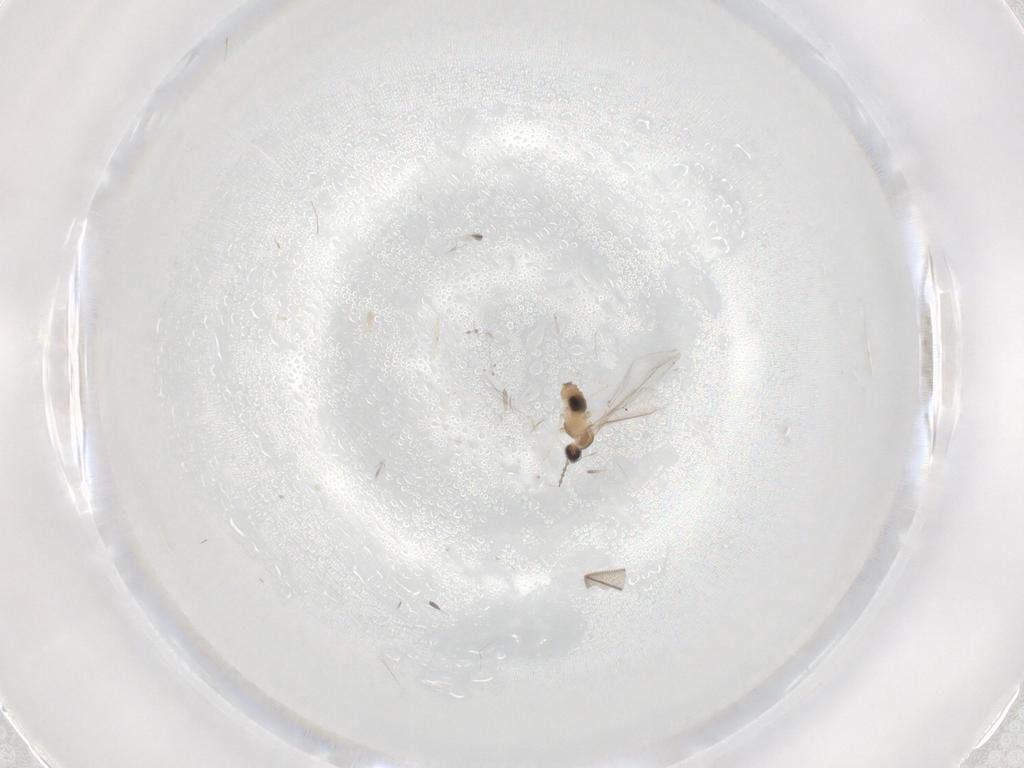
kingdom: Animalia
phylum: Arthropoda
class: Insecta
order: Diptera
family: Cecidomyiidae
